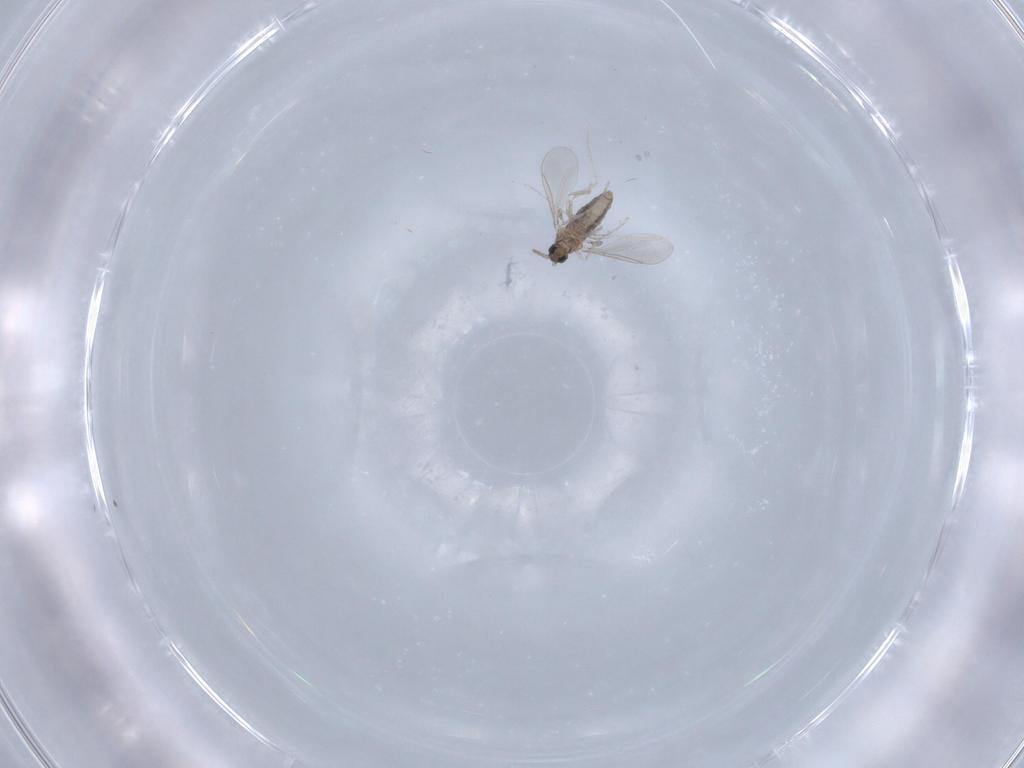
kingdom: Animalia
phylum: Arthropoda
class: Insecta
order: Diptera
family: Cecidomyiidae
